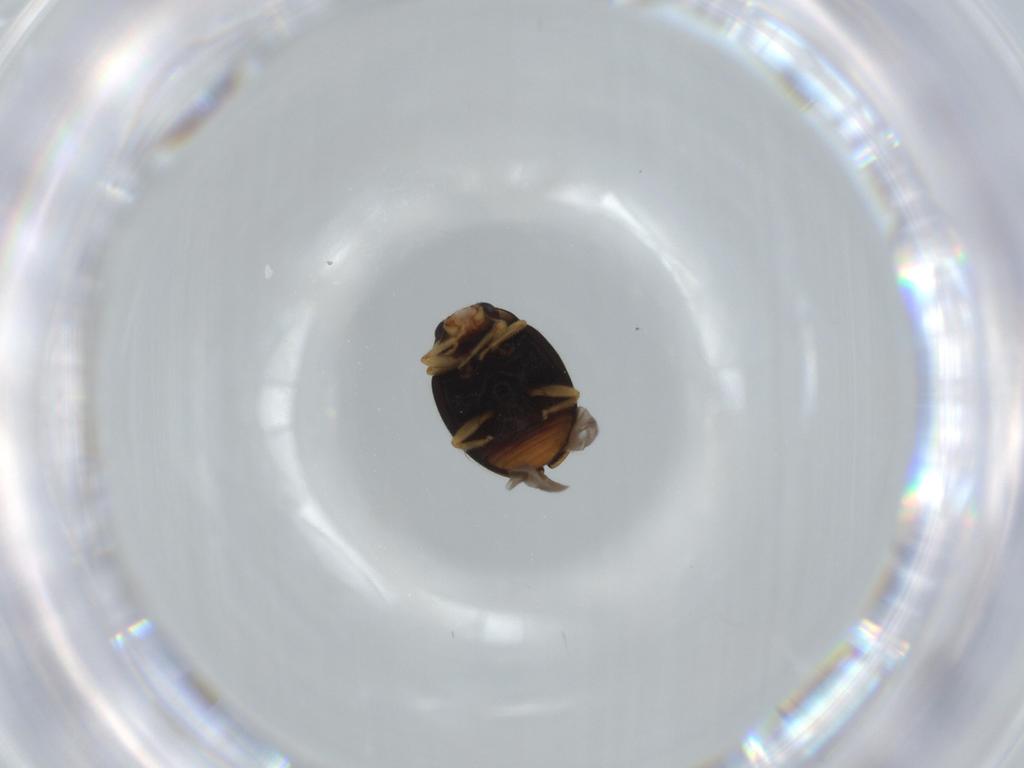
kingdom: Animalia
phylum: Arthropoda
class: Insecta
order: Coleoptera
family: Chrysomelidae
